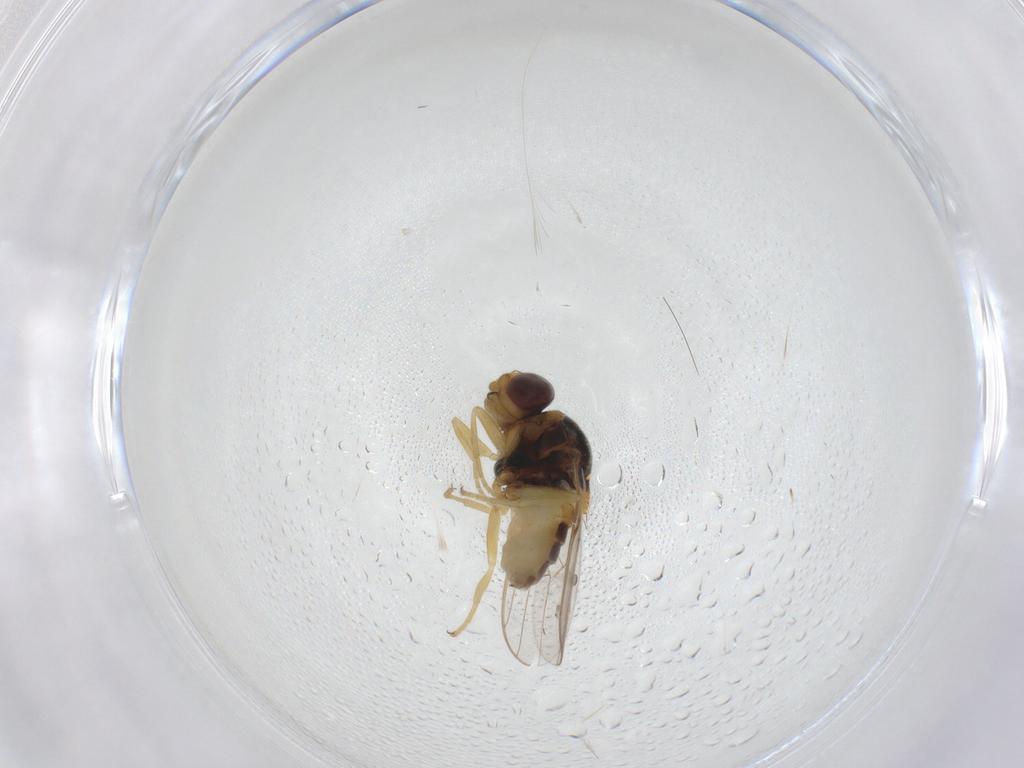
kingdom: Animalia
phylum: Arthropoda
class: Insecta
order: Diptera
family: Chloropidae
